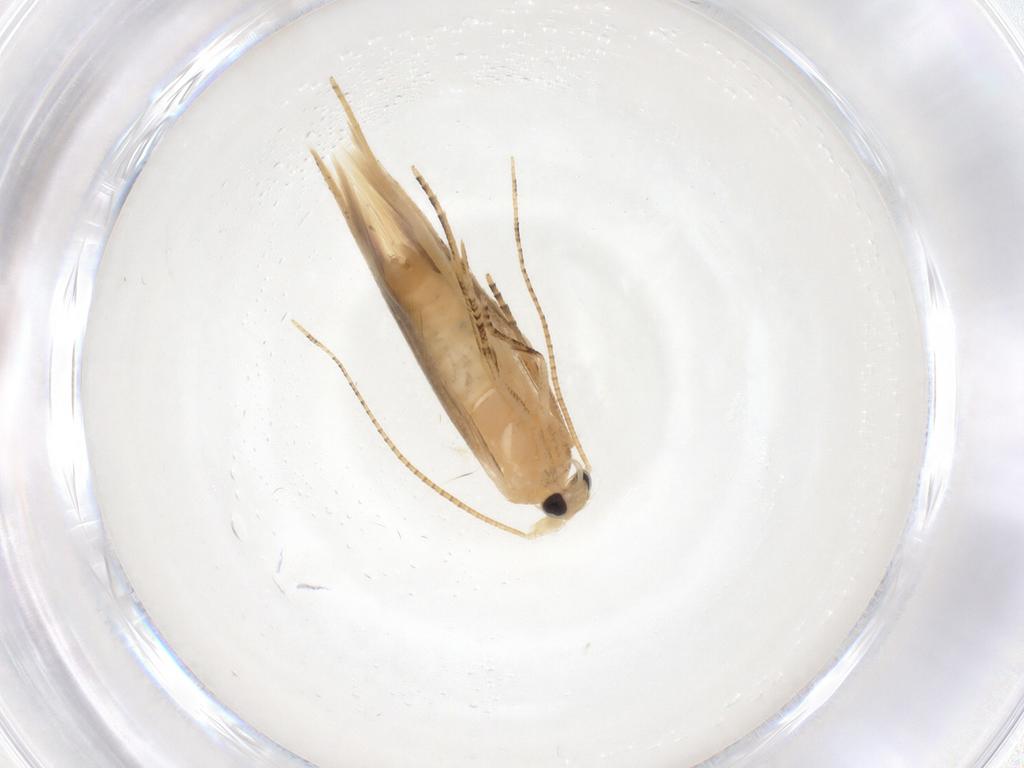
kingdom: Animalia
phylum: Arthropoda
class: Insecta
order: Lepidoptera
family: Bucculatricidae
